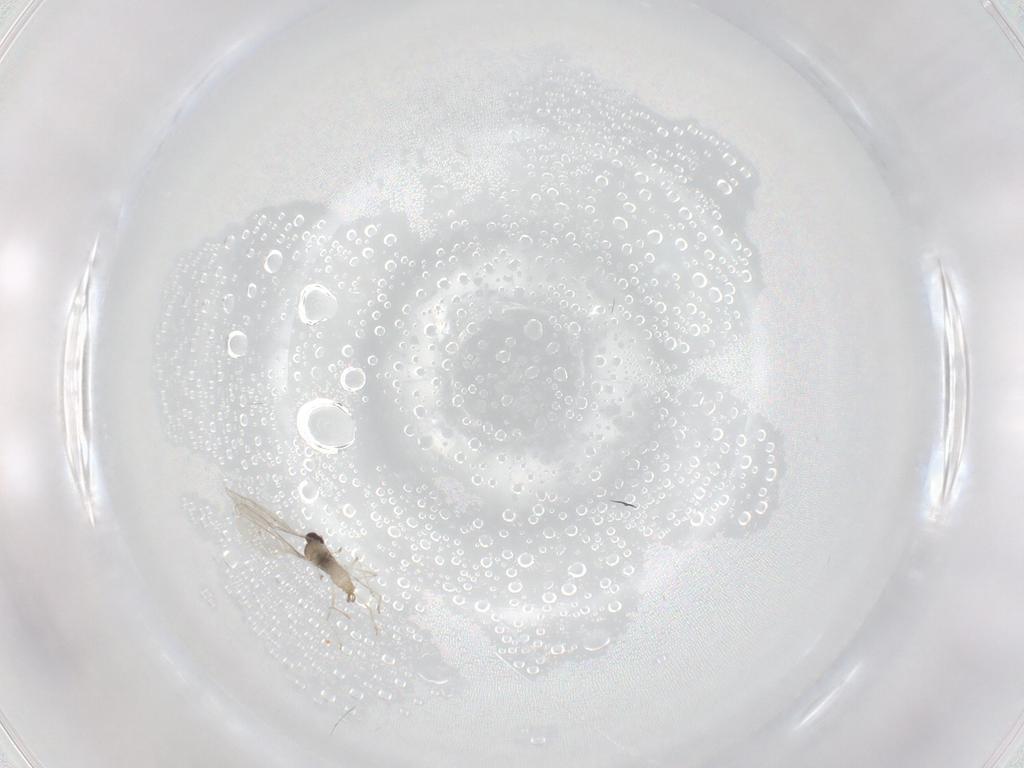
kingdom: Animalia
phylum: Arthropoda
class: Insecta
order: Diptera
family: Cecidomyiidae
